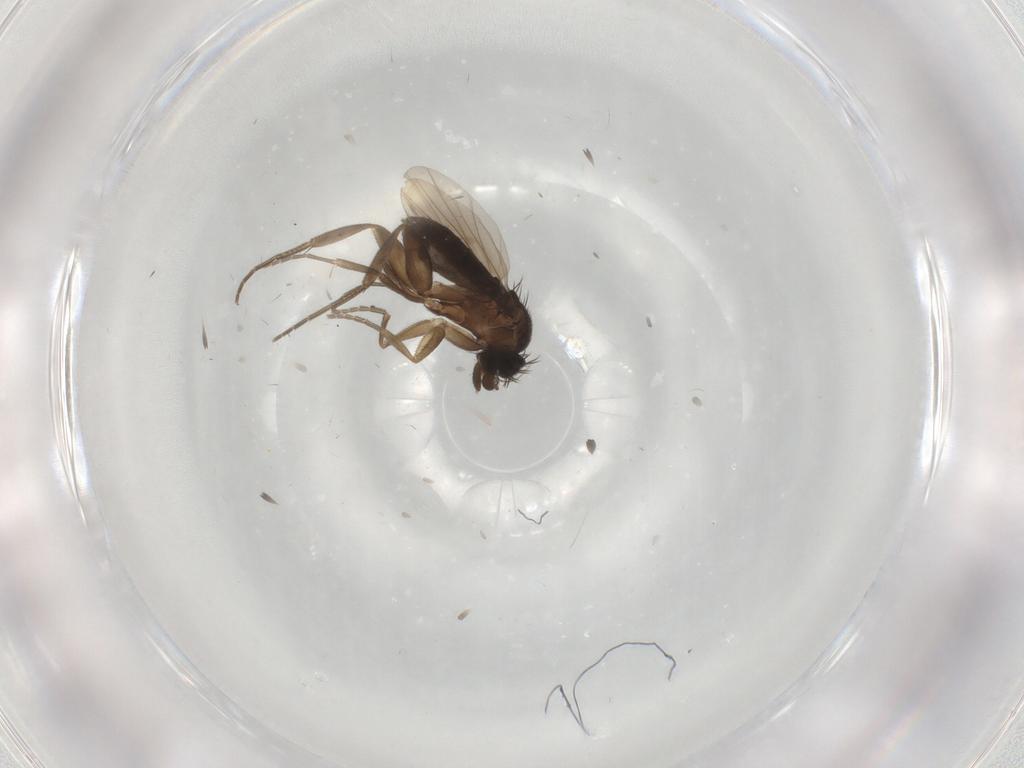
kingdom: Animalia
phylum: Arthropoda
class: Insecta
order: Diptera
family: Phoridae
